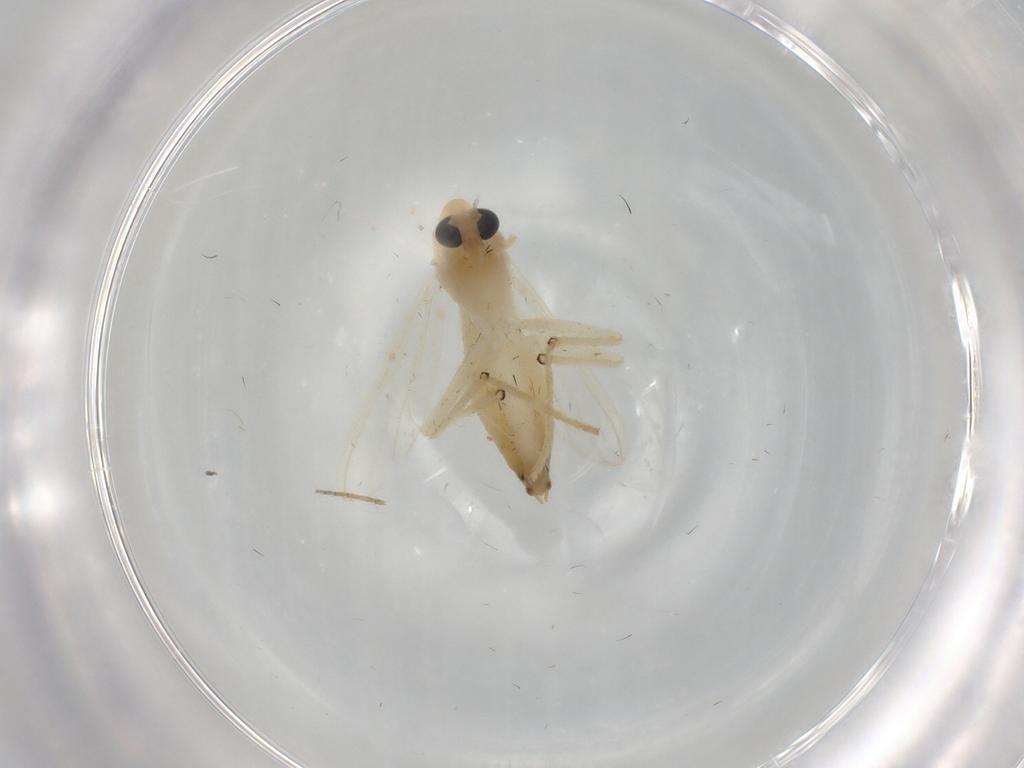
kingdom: Animalia
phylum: Arthropoda
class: Insecta
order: Diptera
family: Chironomidae
